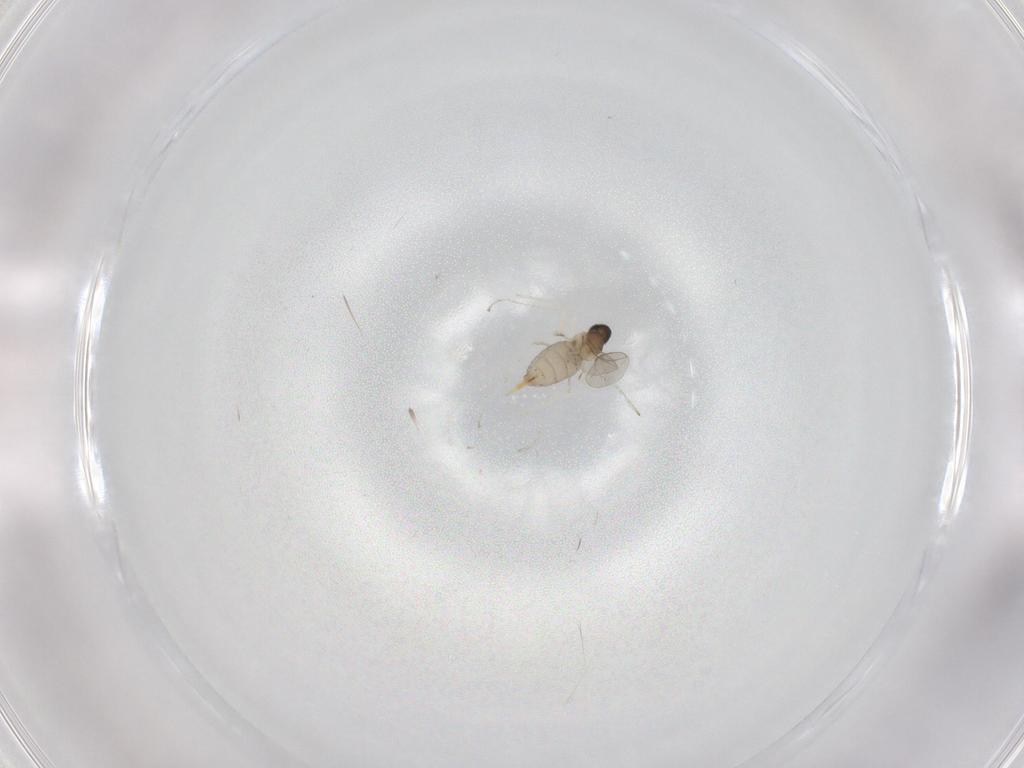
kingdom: Animalia
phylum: Arthropoda
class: Insecta
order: Diptera
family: Cecidomyiidae
